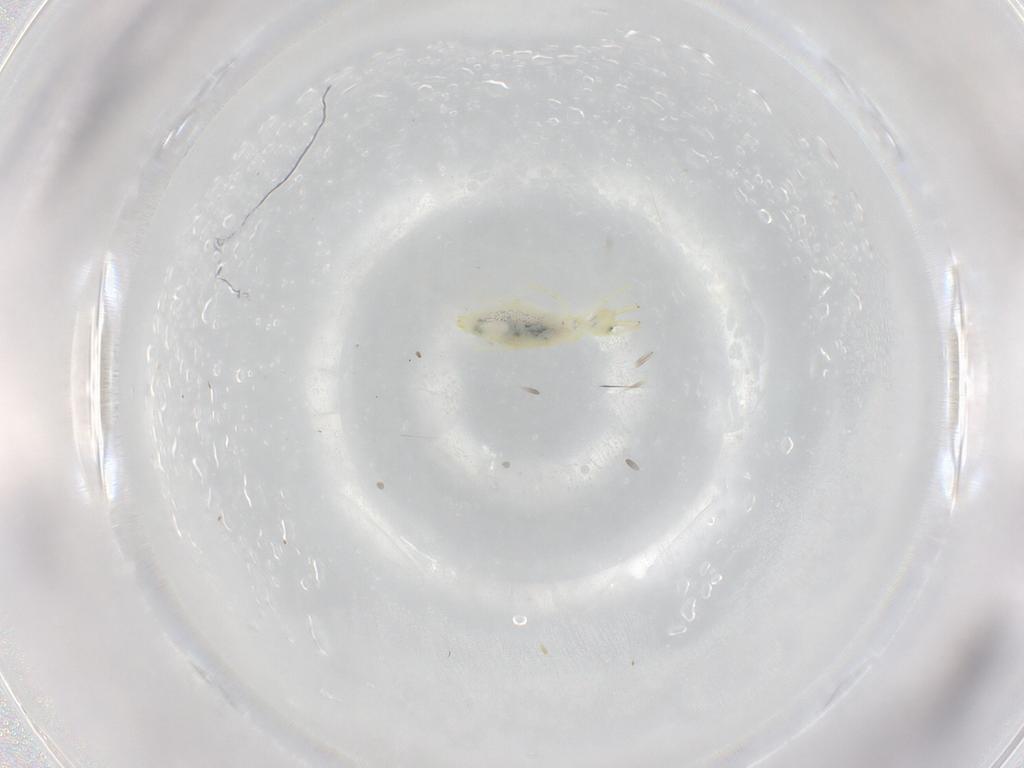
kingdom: Animalia
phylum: Arthropoda
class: Collembola
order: Entomobryomorpha
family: Paronellidae
